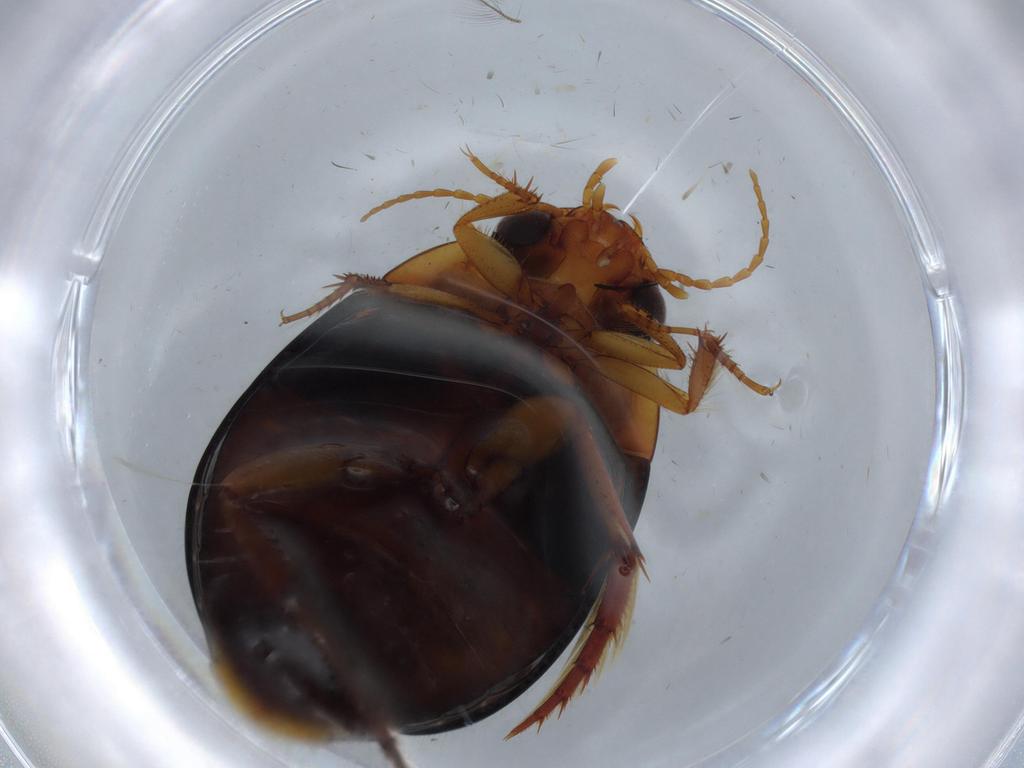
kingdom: Animalia
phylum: Arthropoda
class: Insecta
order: Coleoptera
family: Dytiscidae
